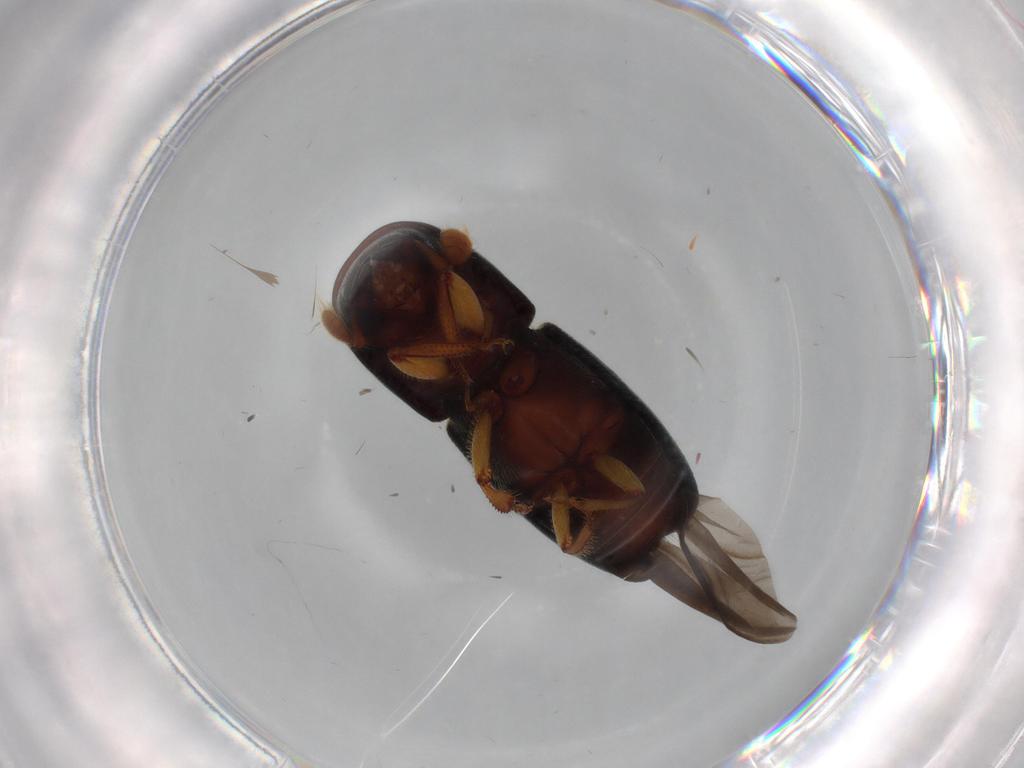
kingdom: Animalia
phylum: Arthropoda
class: Insecta
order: Coleoptera
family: Curculionidae
